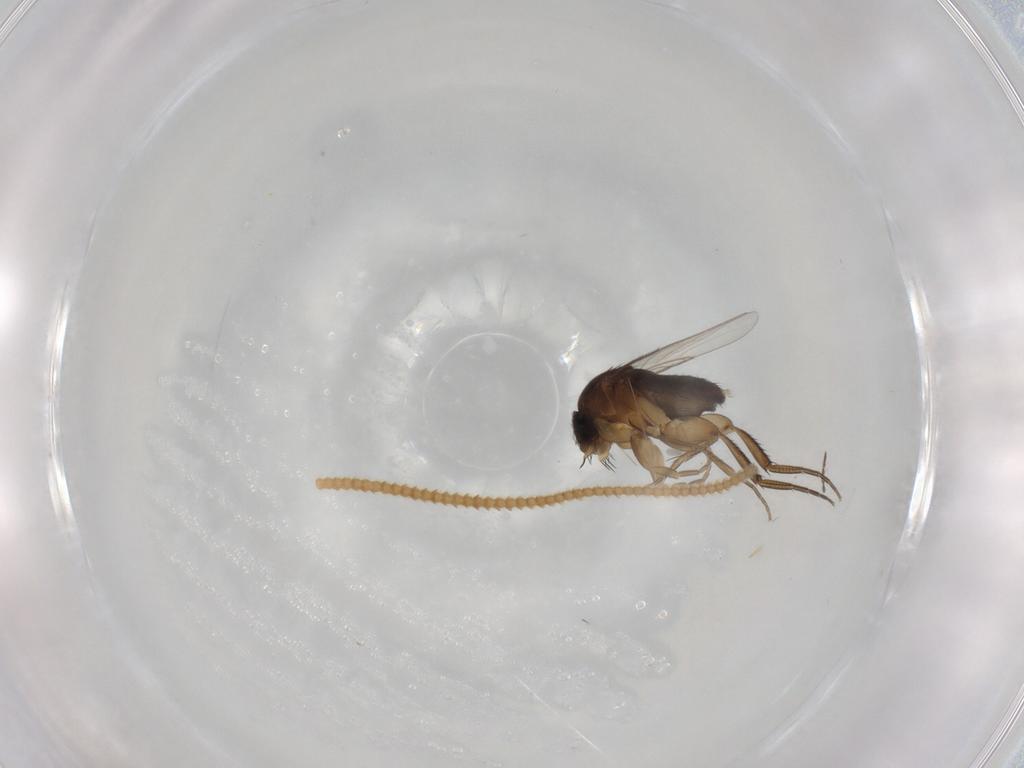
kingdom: Animalia
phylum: Arthropoda
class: Insecta
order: Diptera
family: Phoridae
